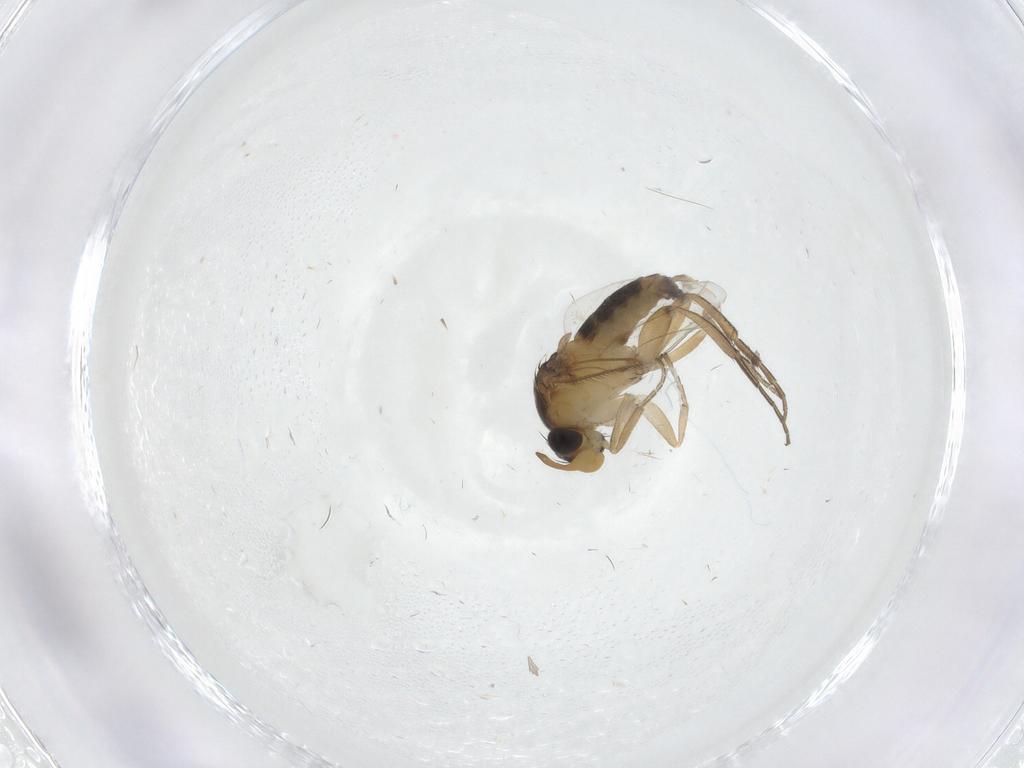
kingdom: Animalia
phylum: Arthropoda
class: Insecta
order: Diptera
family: Phoridae
